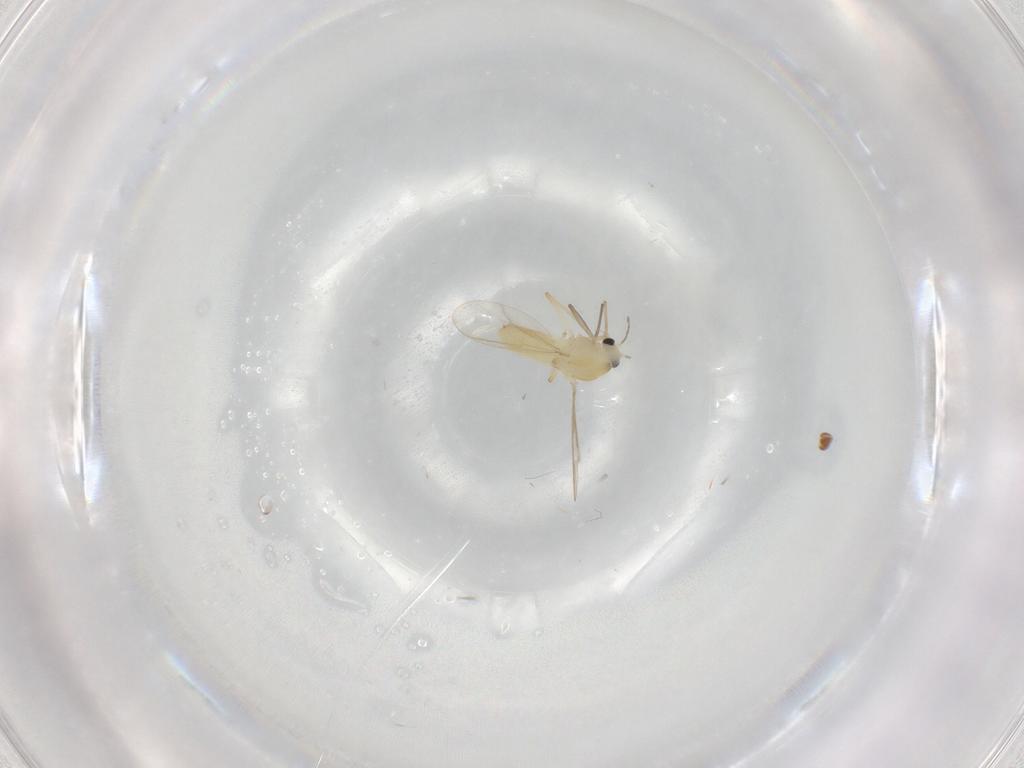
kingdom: Animalia
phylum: Arthropoda
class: Insecta
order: Diptera
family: Chironomidae
